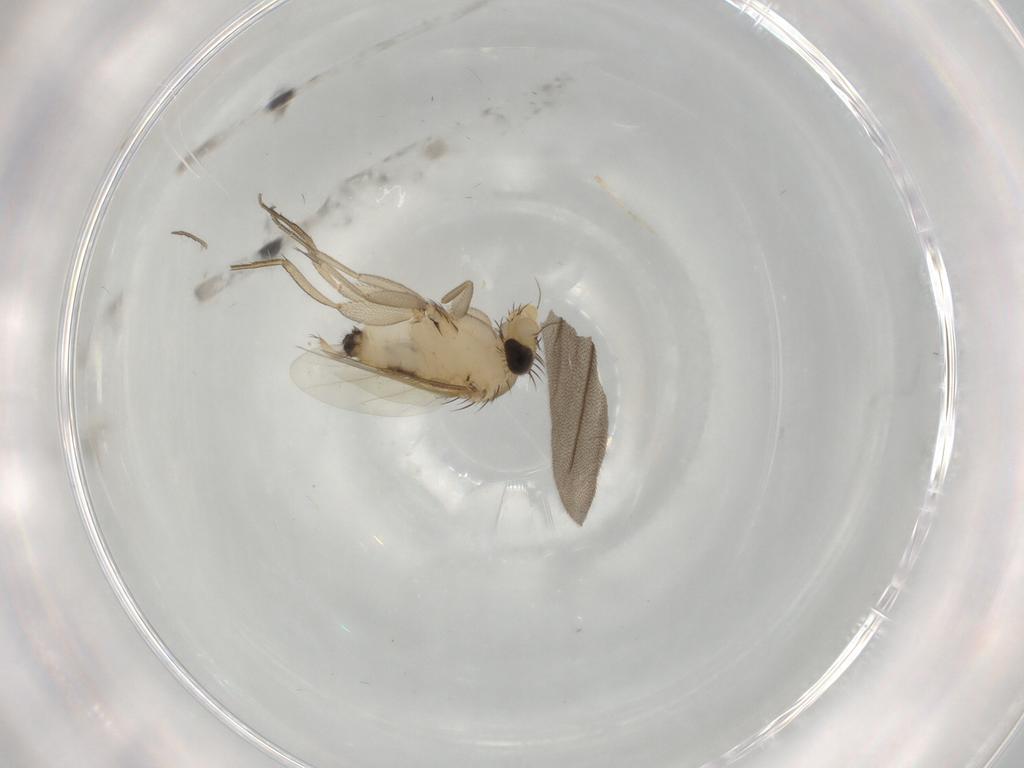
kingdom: Animalia
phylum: Arthropoda
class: Insecta
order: Diptera
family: Phoridae
